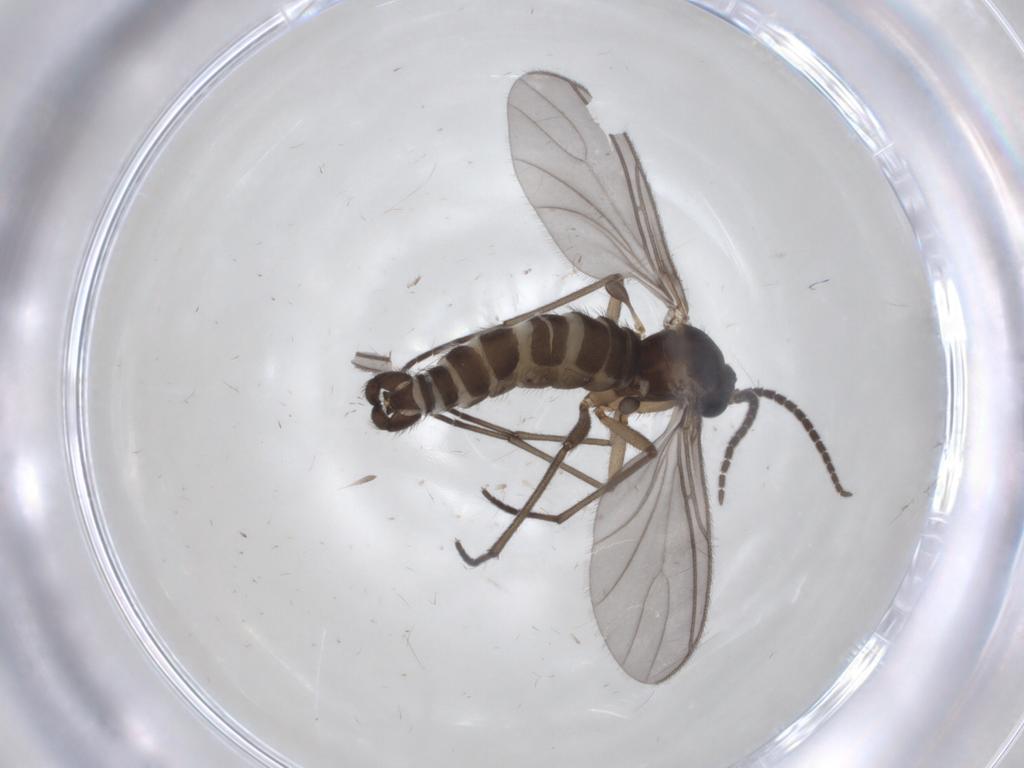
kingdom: Animalia
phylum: Arthropoda
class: Insecta
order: Diptera
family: Sciaridae
